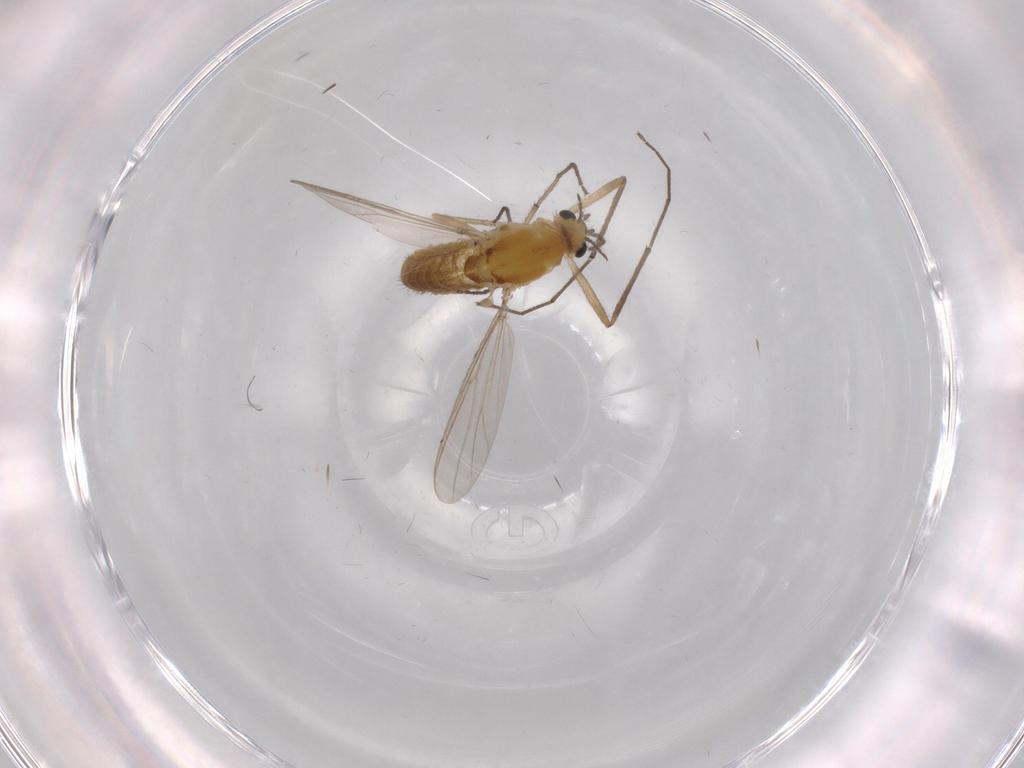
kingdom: Animalia
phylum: Arthropoda
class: Insecta
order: Diptera
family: Chironomidae
